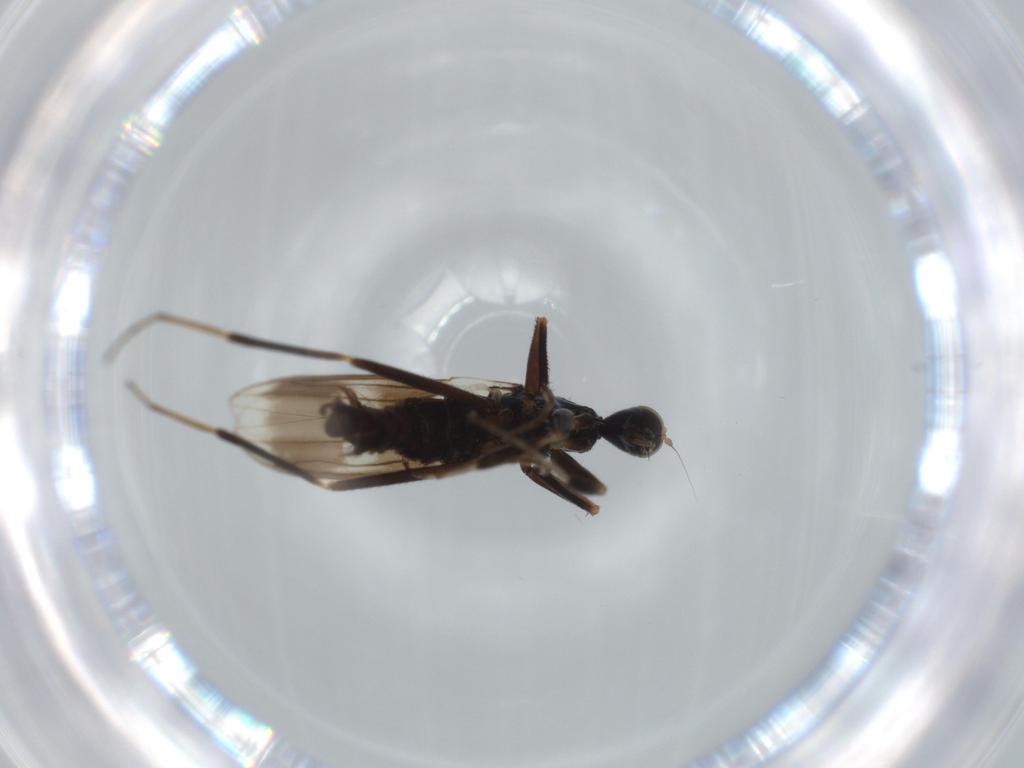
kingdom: Animalia
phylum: Arthropoda
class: Insecta
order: Diptera
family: Hybotidae
